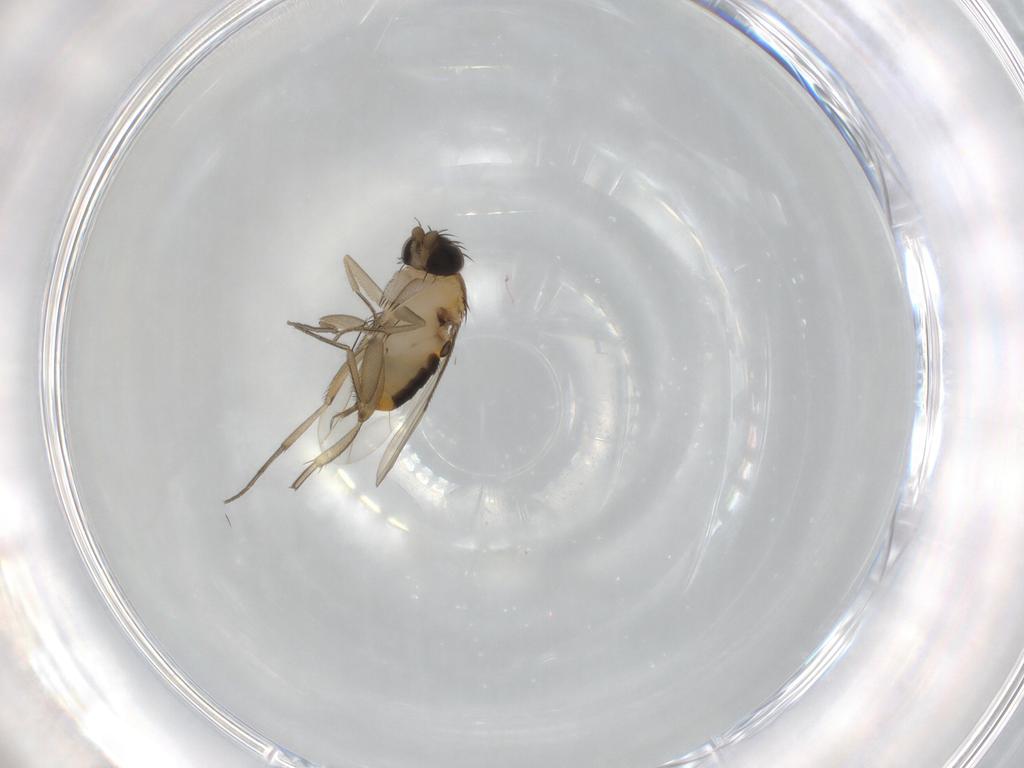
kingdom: Animalia
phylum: Arthropoda
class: Insecta
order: Diptera
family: Phoridae
